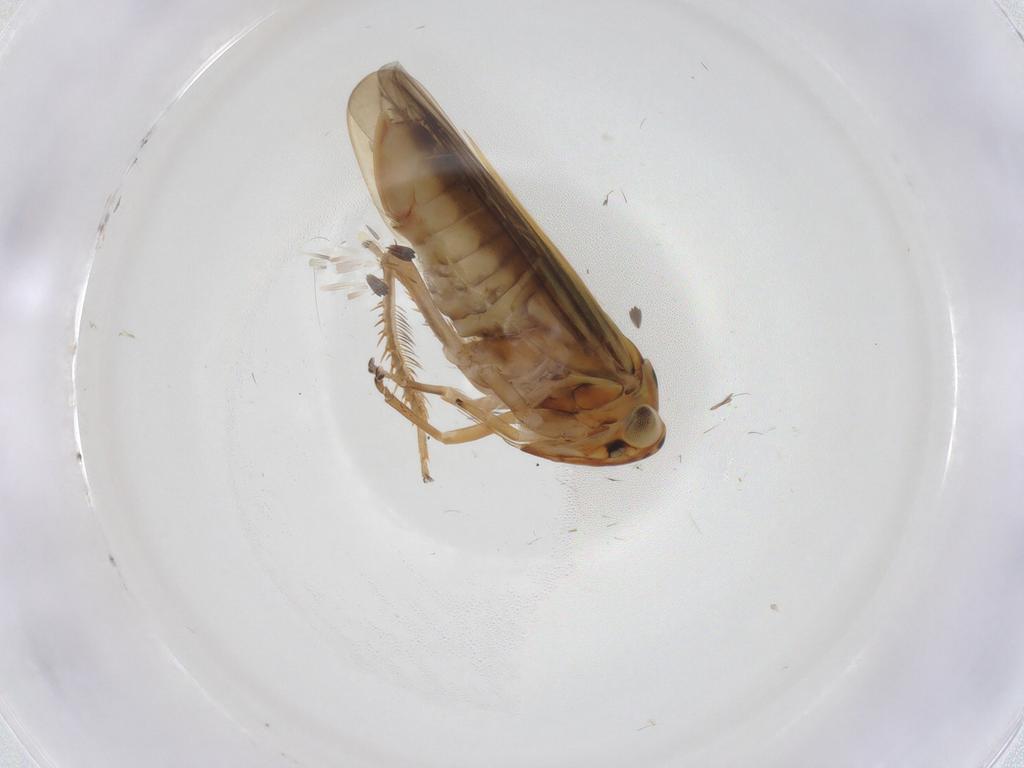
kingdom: Animalia
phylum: Arthropoda
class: Insecta
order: Hemiptera
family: Cicadellidae
